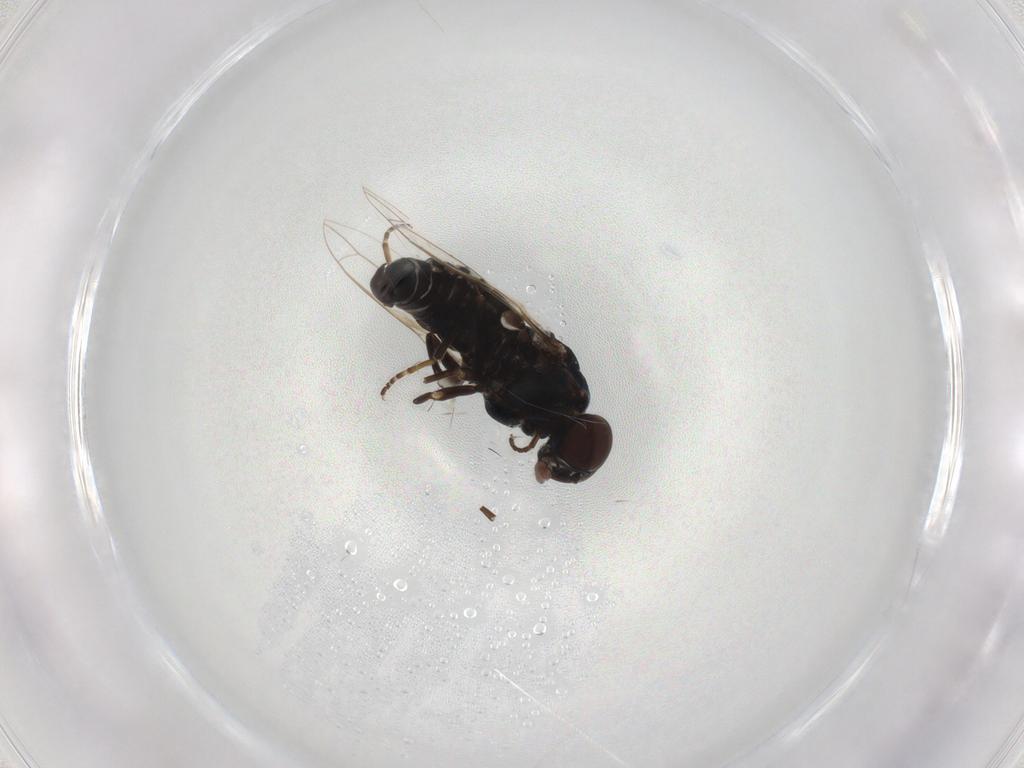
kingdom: Animalia
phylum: Arthropoda
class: Insecta
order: Diptera
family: Scenopinidae
